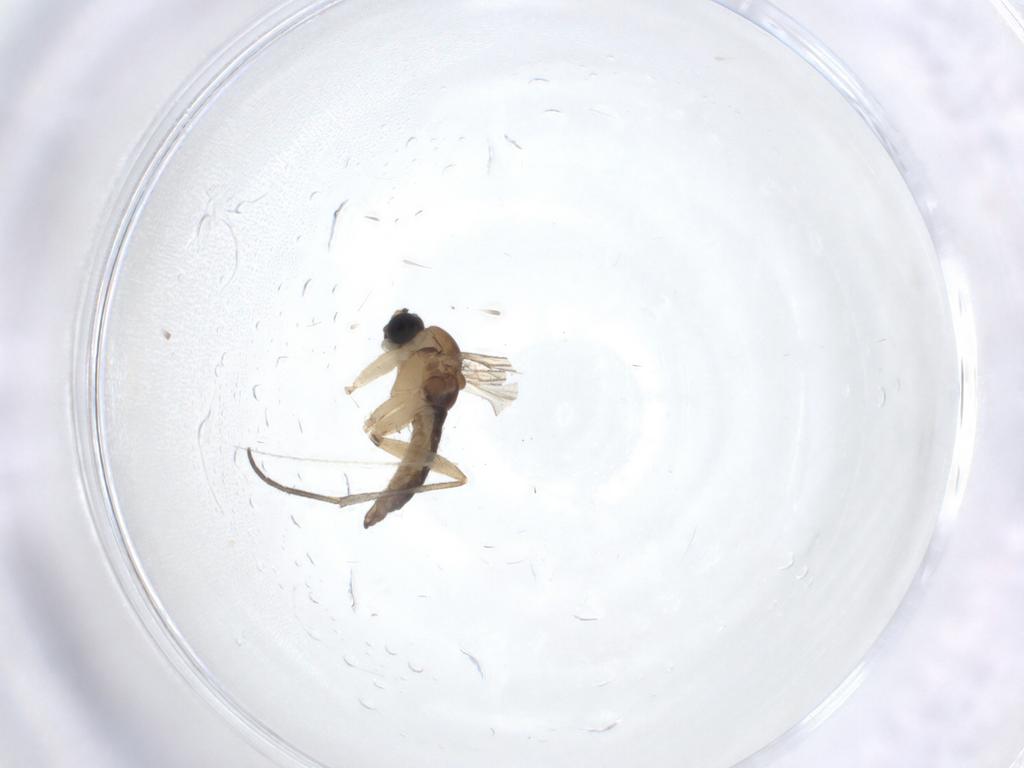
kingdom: Animalia
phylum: Arthropoda
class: Insecta
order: Diptera
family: Sciaridae
